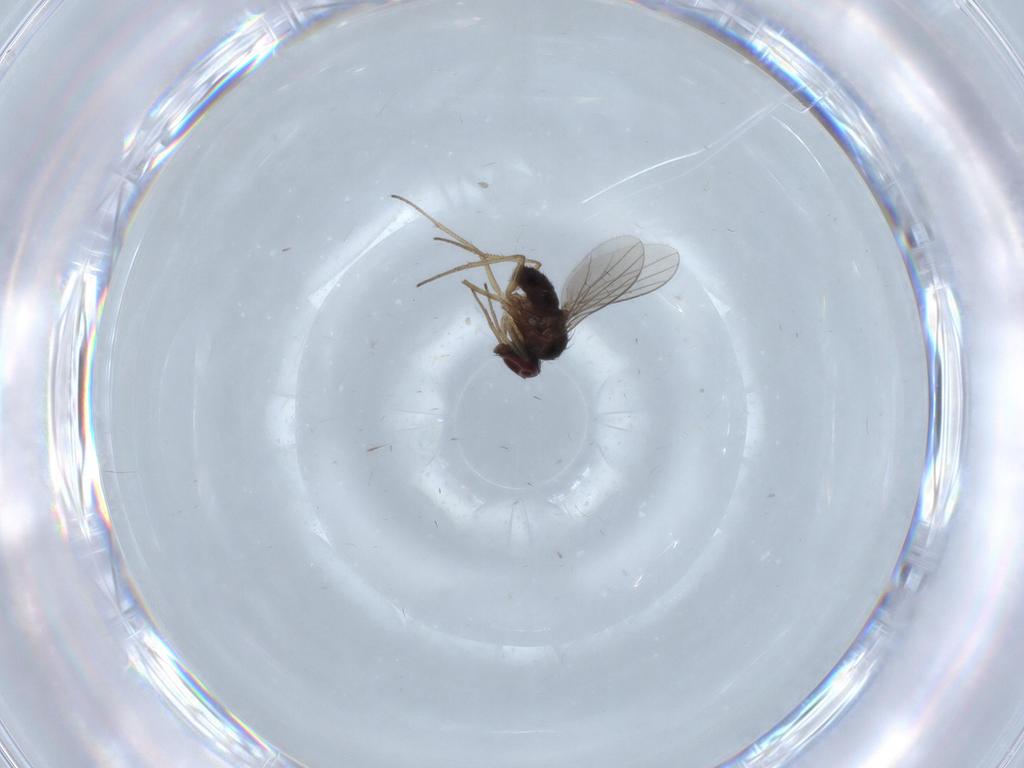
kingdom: Animalia
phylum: Arthropoda
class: Insecta
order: Diptera
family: Dolichopodidae
